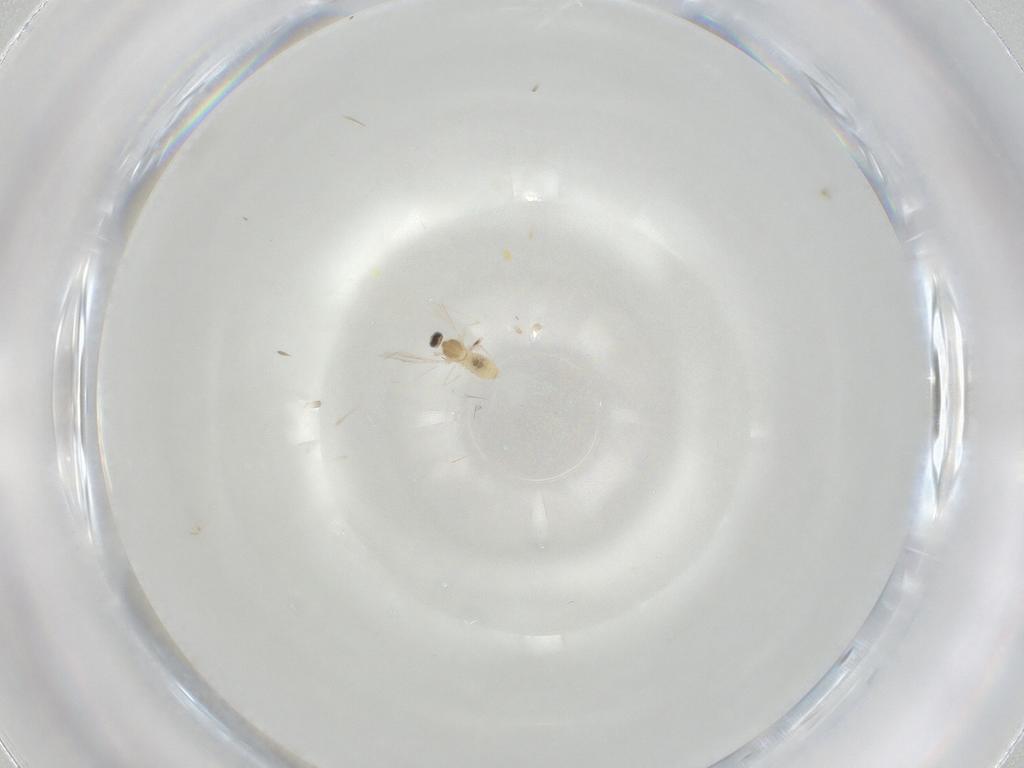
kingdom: Animalia
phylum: Arthropoda
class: Insecta
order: Diptera
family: Cecidomyiidae
